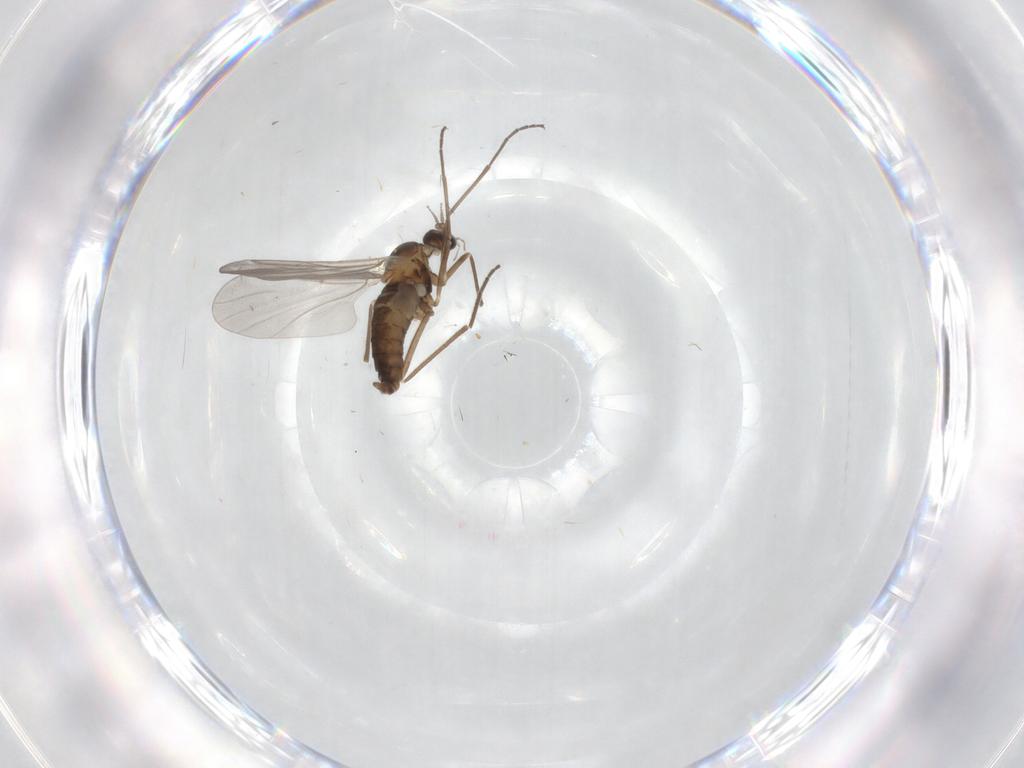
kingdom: Animalia
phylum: Arthropoda
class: Insecta
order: Diptera
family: Cecidomyiidae
